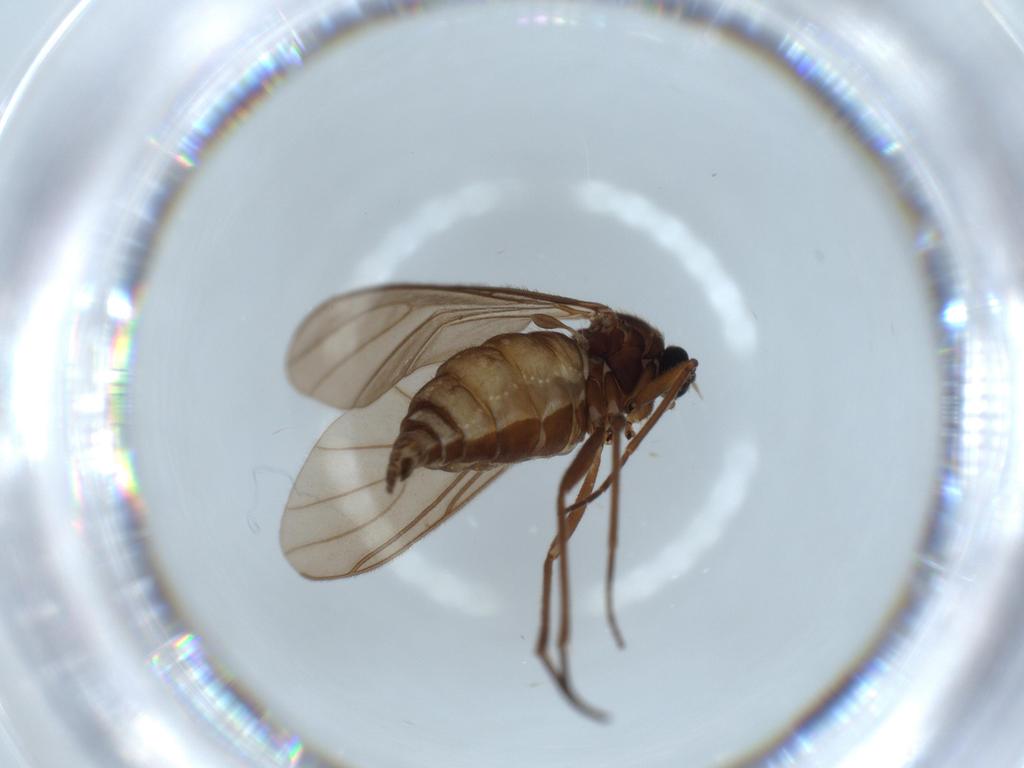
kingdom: Animalia
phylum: Arthropoda
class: Insecta
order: Diptera
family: Sciaridae
